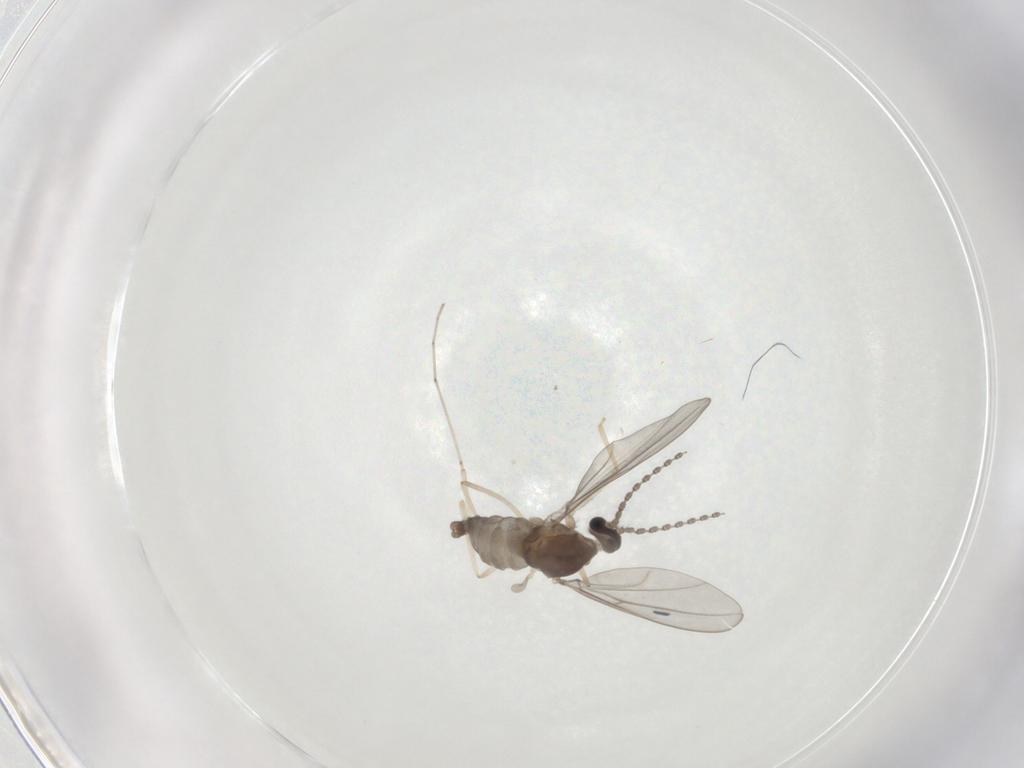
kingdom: Animalia
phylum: Arthropoda
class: Insecta
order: Diptera
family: Cecidomyiidae
